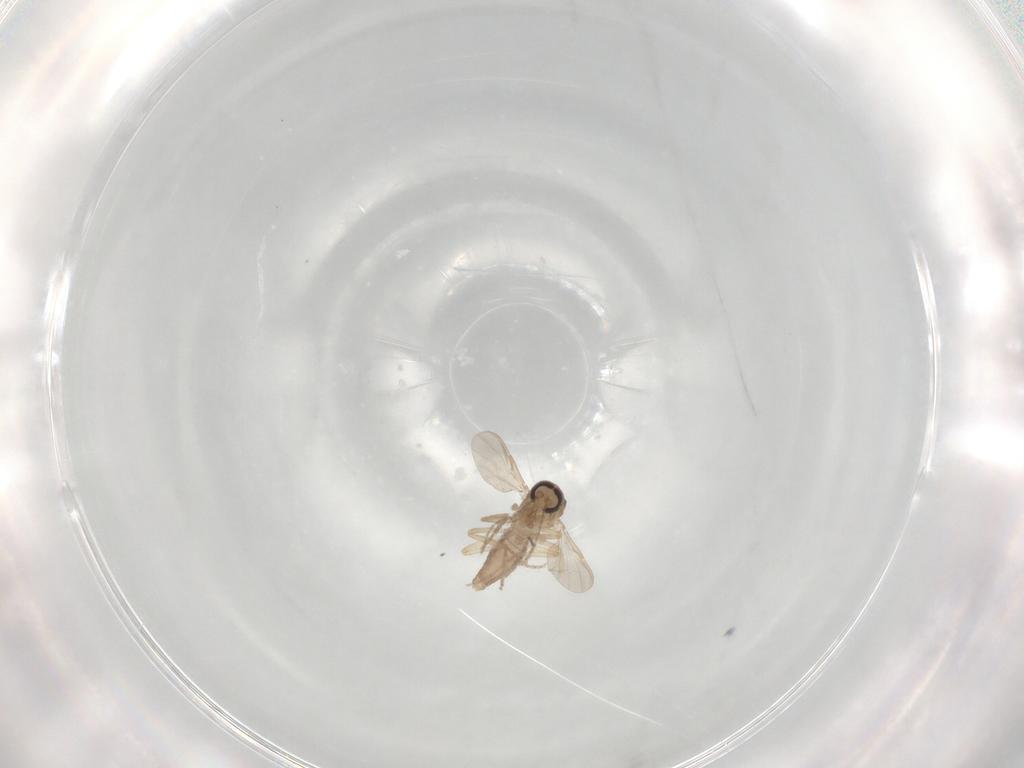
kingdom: Animalia
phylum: Arthropoda
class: Insecta
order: Diptera
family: Ceratopogonidae
